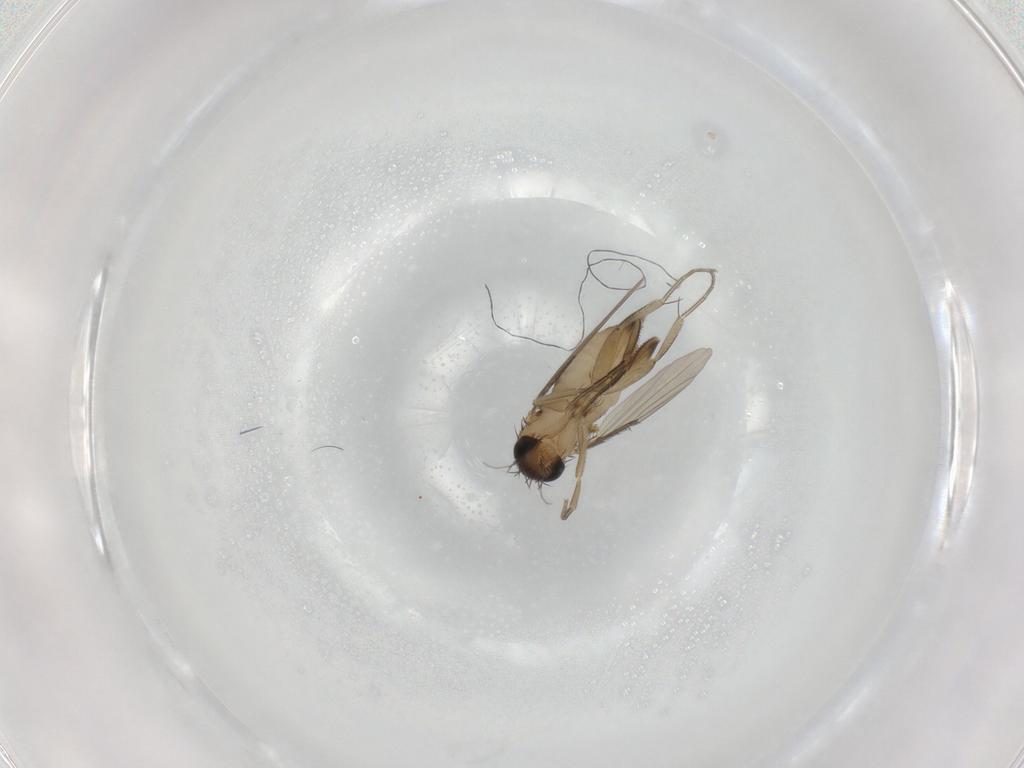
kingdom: Animalia
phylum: Arthropoda
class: Insecta
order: Diptera
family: Phoridae
